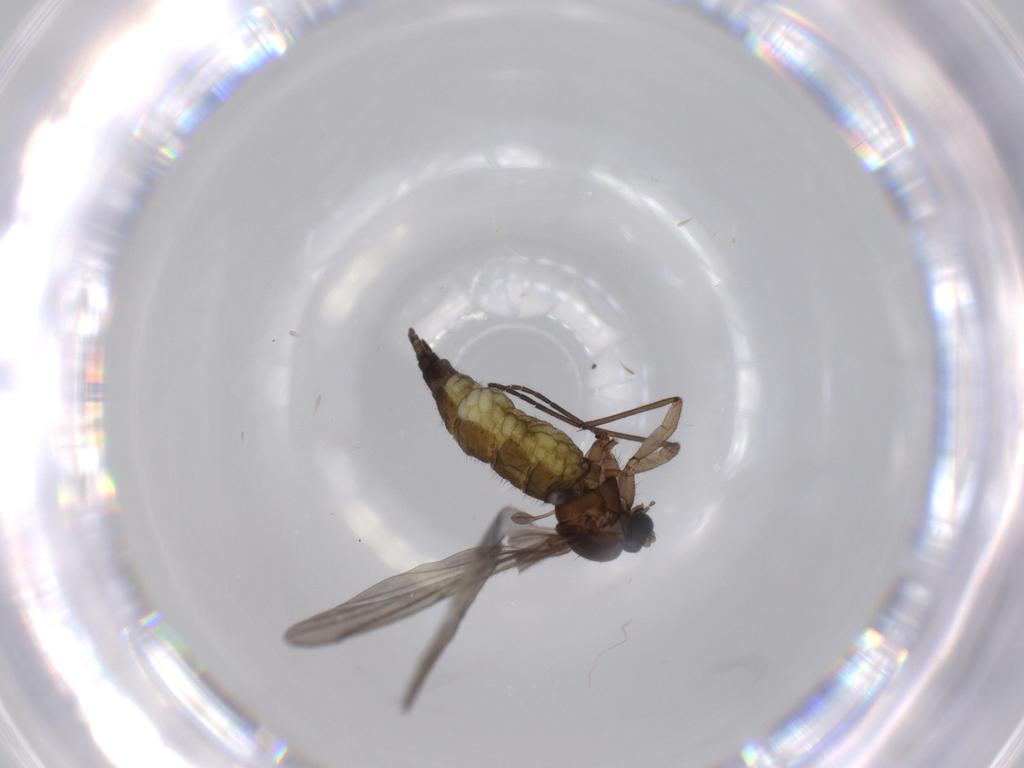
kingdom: Animalia
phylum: Arthropoda
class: Insecta
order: Diptera
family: Sciaridae
